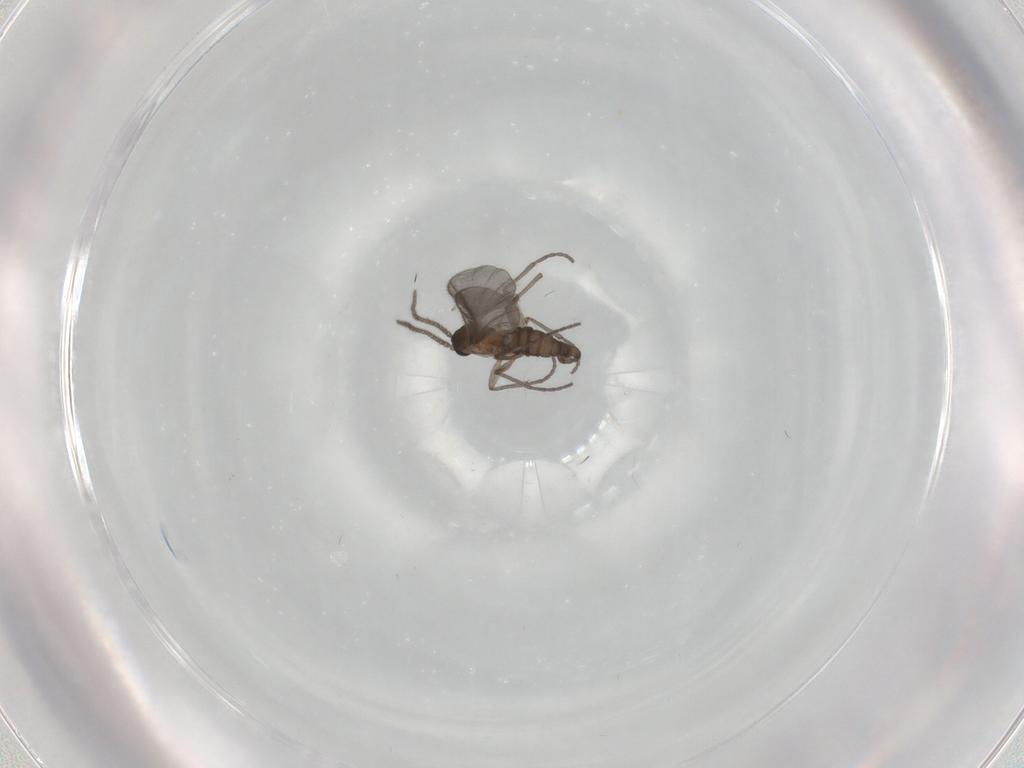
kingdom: Animalia
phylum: Arthropoda
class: Insecta
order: Diptera
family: Sciaridae
